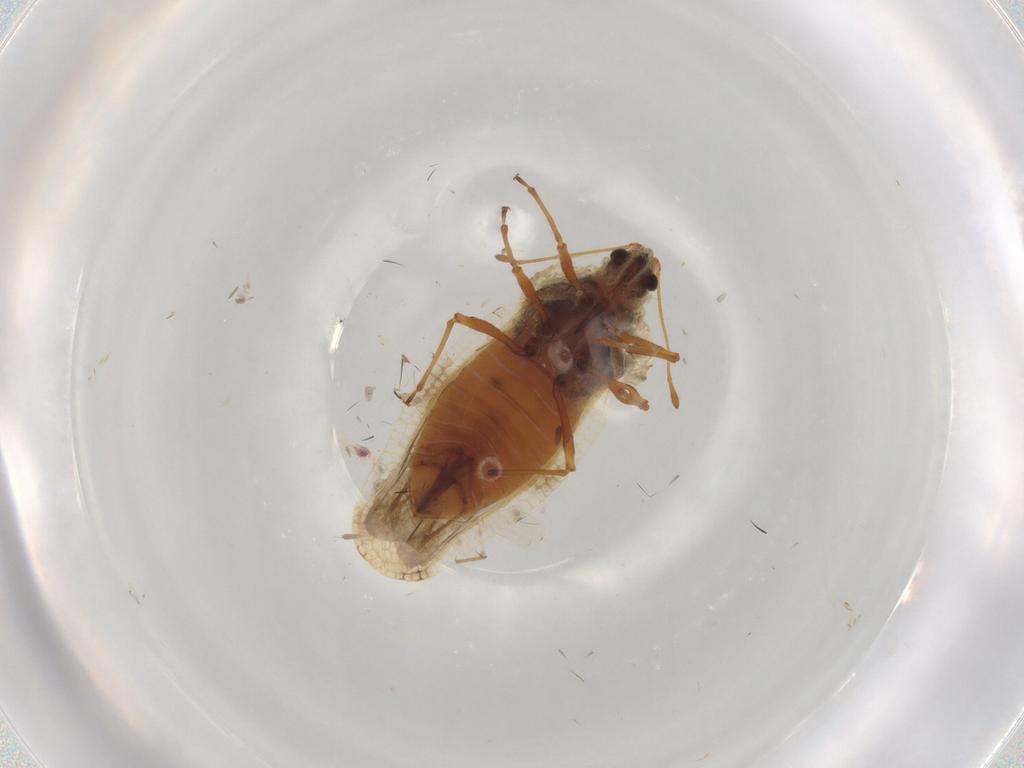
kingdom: Animalia
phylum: Arthropoda
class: Insecta
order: Hemiptera
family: Tingidae
